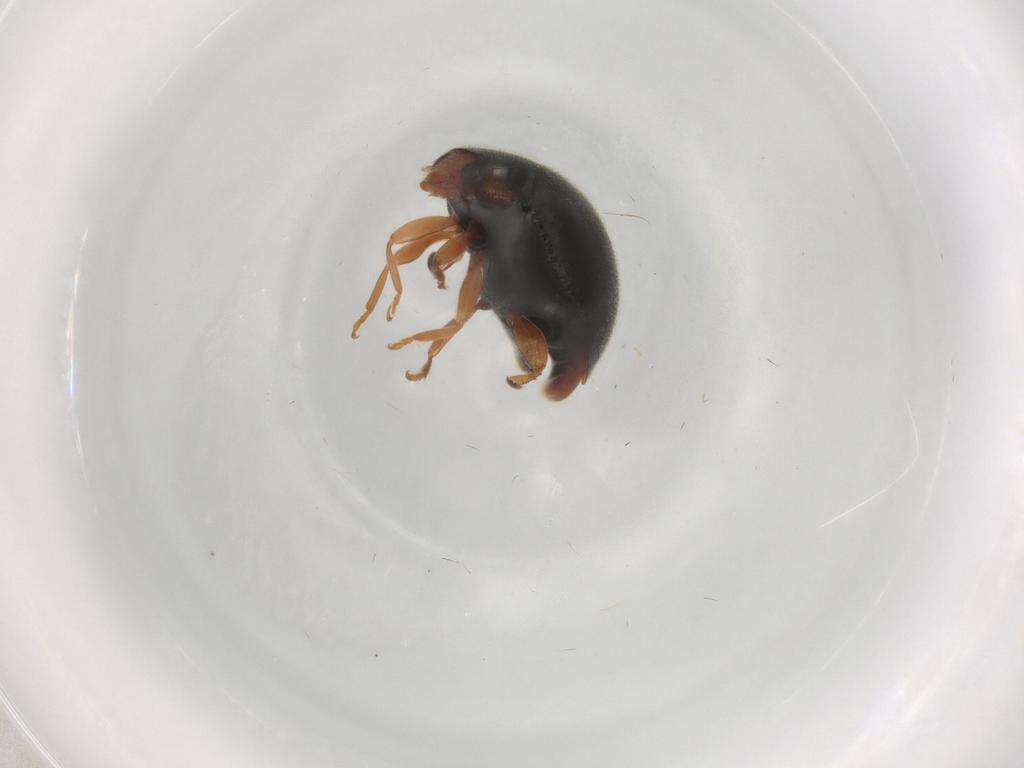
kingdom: Animalia
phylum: Arthropoda
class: Insecta
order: Coleoptera
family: Coccinellidae
